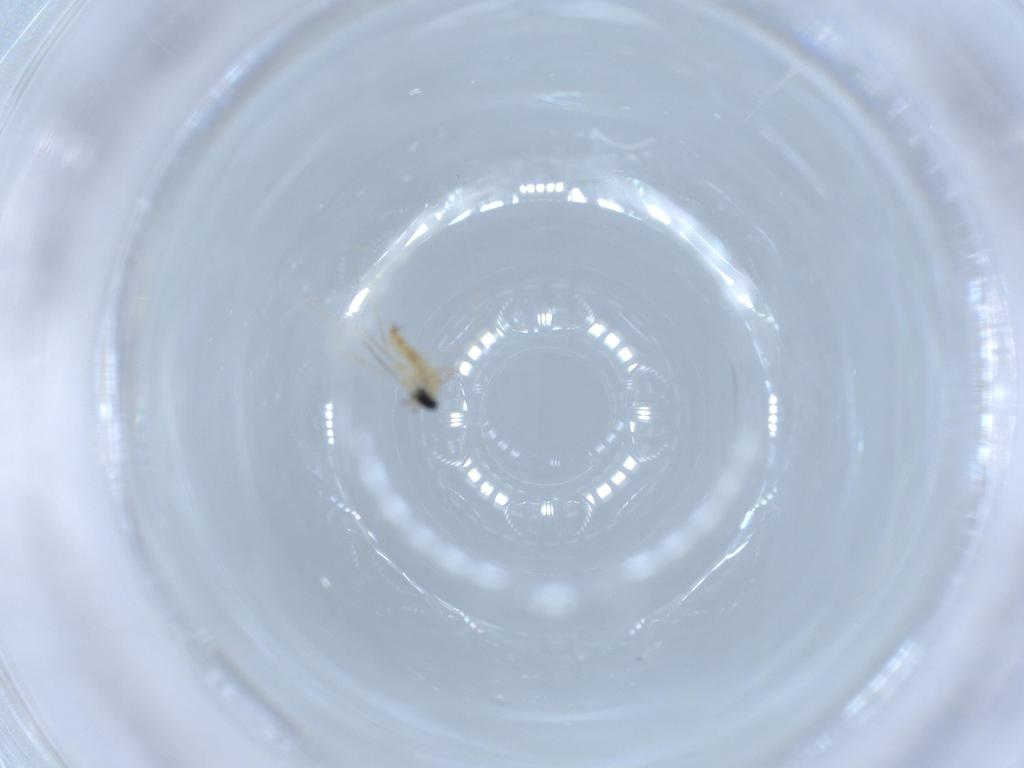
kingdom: Animalia
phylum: Arthropoda
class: Insecta
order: Diptera
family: Cecidomyiidae
